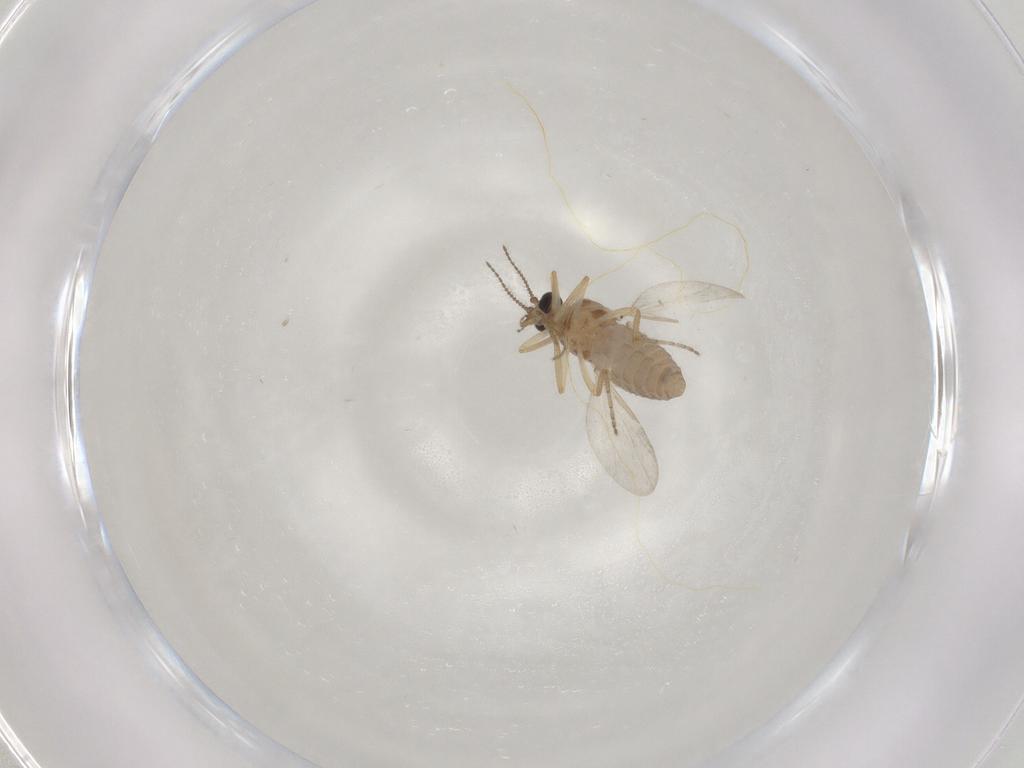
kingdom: Animalia
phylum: Arthropoda
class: Insecta
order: Diptera
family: Ceratopogonidae
